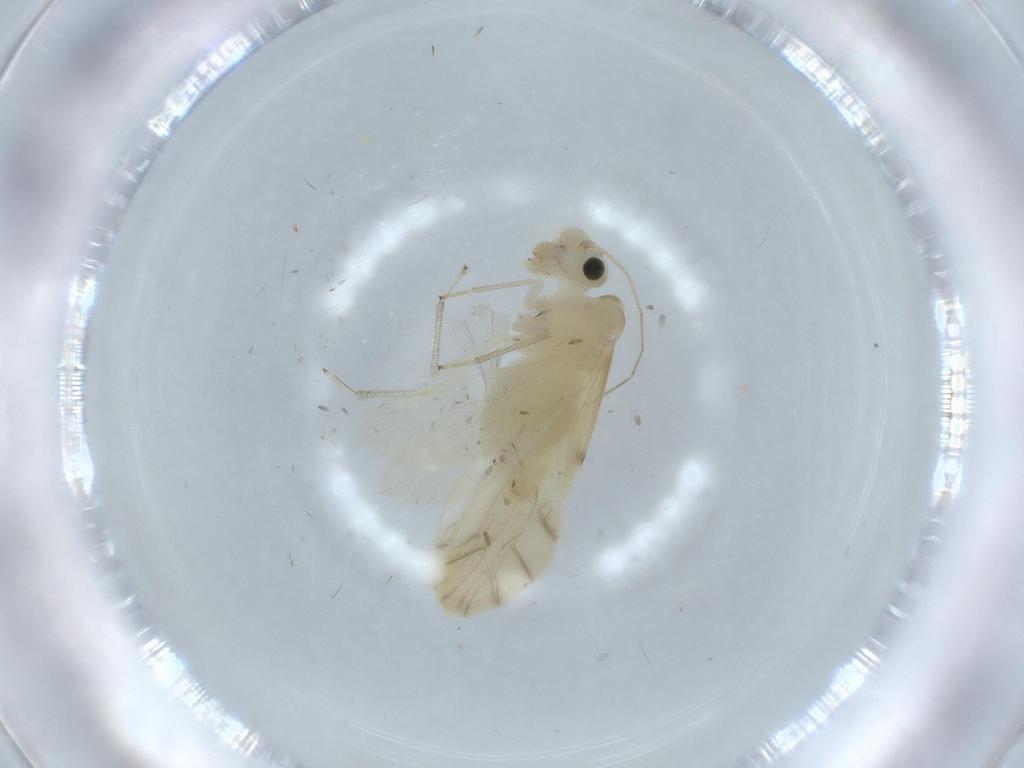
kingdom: Animalia
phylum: Arthropoda
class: Insecta
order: Psocodea
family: Caeciliusidae
